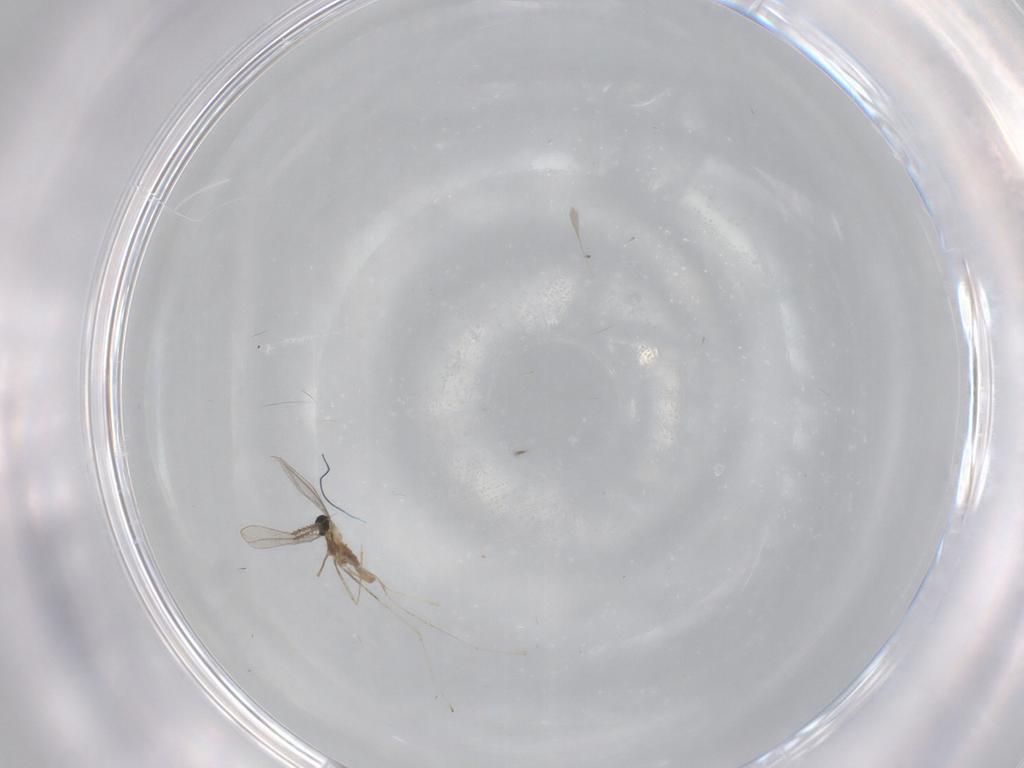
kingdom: Animalia
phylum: Arthropoda
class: Insecta
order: Diptera
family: Cecidomyiidae
